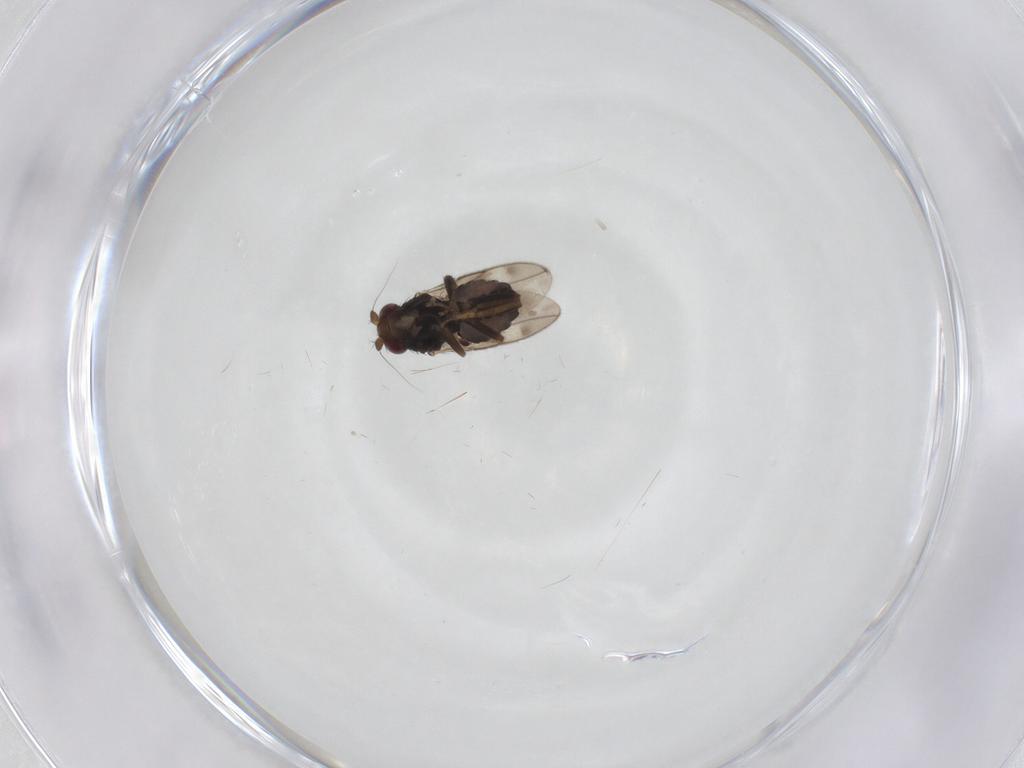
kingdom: Animalia
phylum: Arthropoda
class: Insecta
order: Diptera
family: Sphaeroceridae
